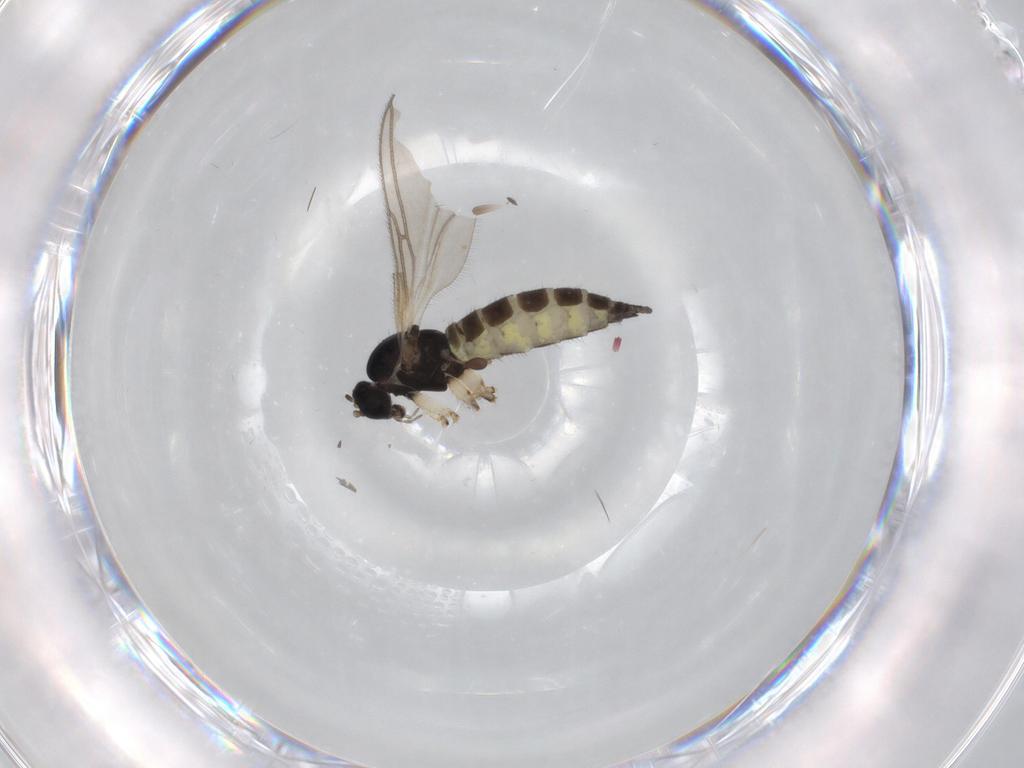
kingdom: Animalia
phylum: Arthropoda
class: Insecta
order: Diptera
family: Sciaridae
